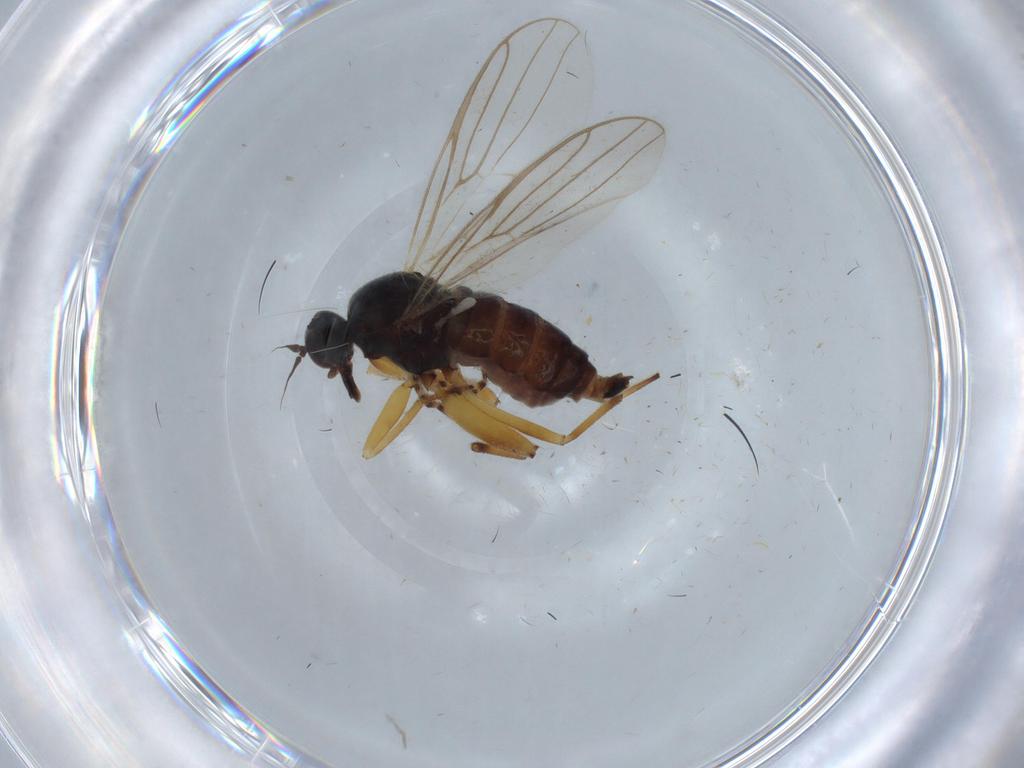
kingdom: Animalia
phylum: Arthropoda
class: Insecta
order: Diptera
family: Hybotidae
